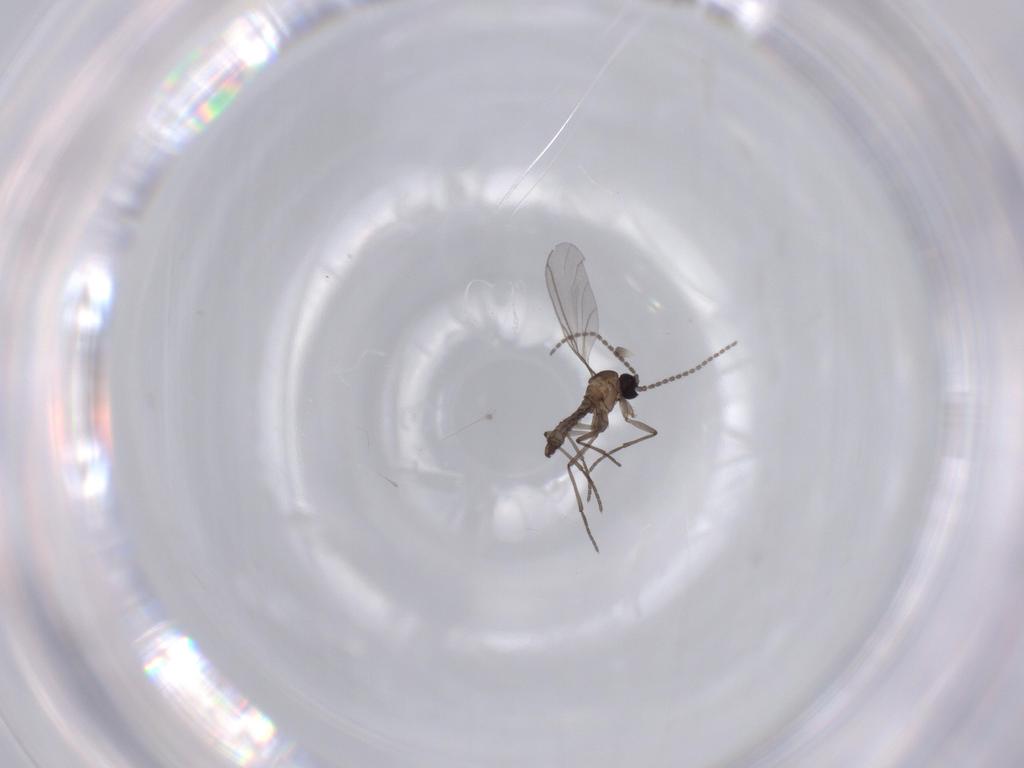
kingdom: Animalia
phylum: Arthropoda
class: Insecta
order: Diptera
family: Sciaridae
